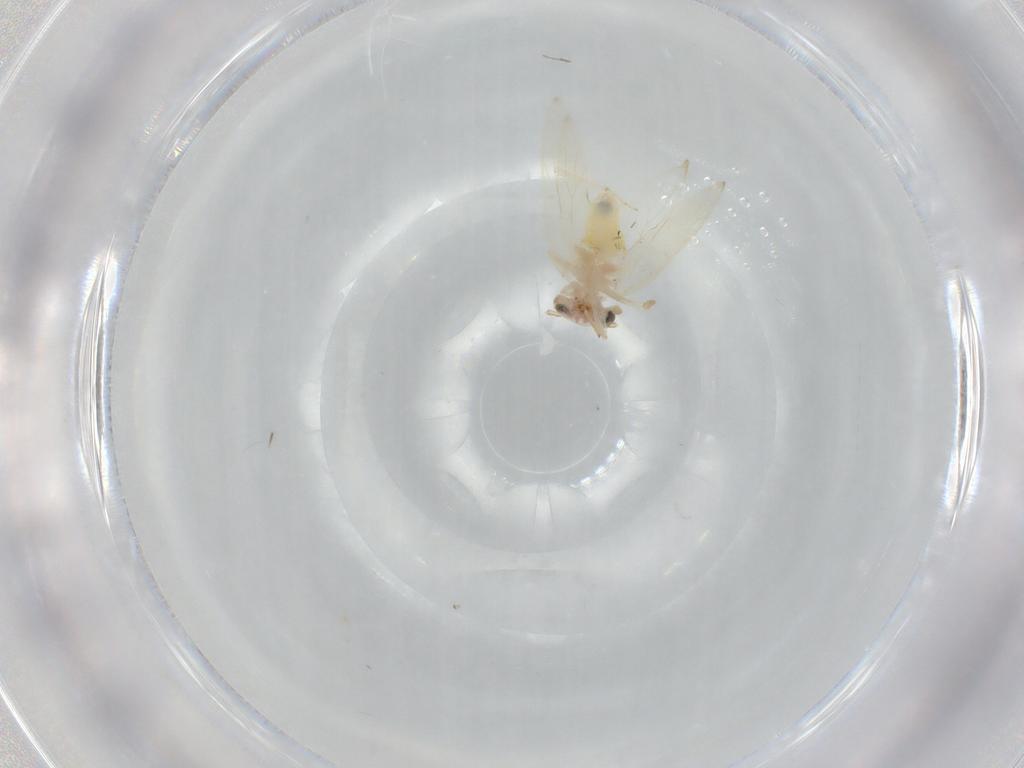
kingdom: Animalia
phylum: Arthropoda
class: Insecta
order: Psocodea
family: Lepidopsocidae
